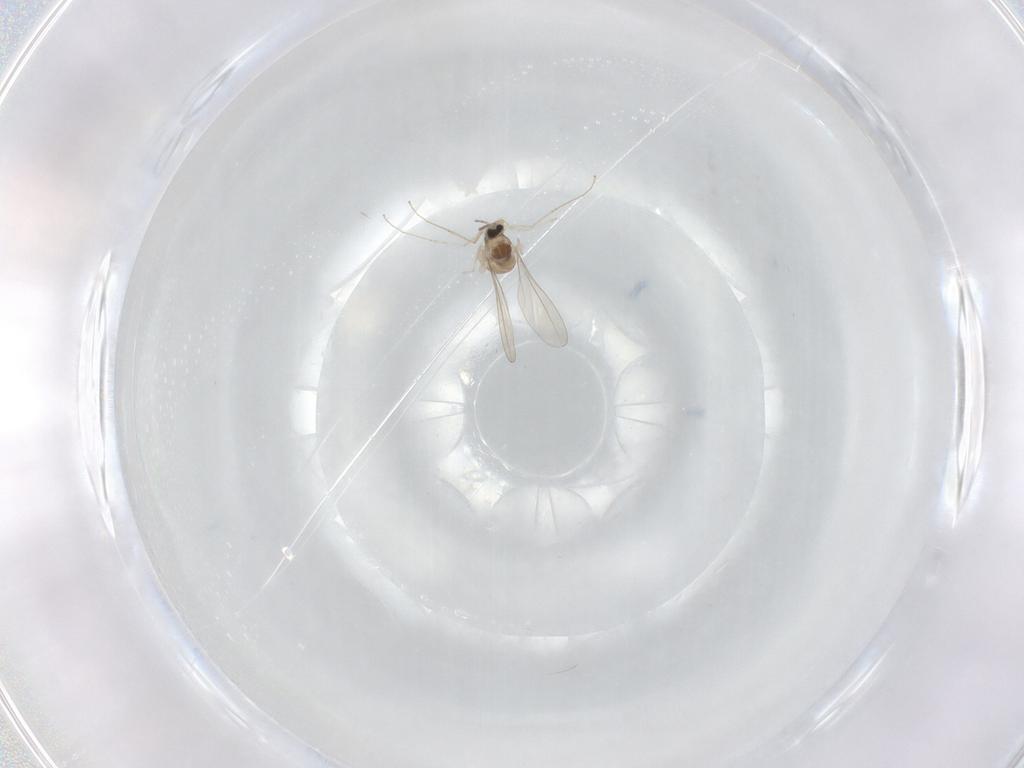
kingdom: Animalia
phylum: Arthropoda
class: Insecta
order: Diptera
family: Cecidomyiidae
